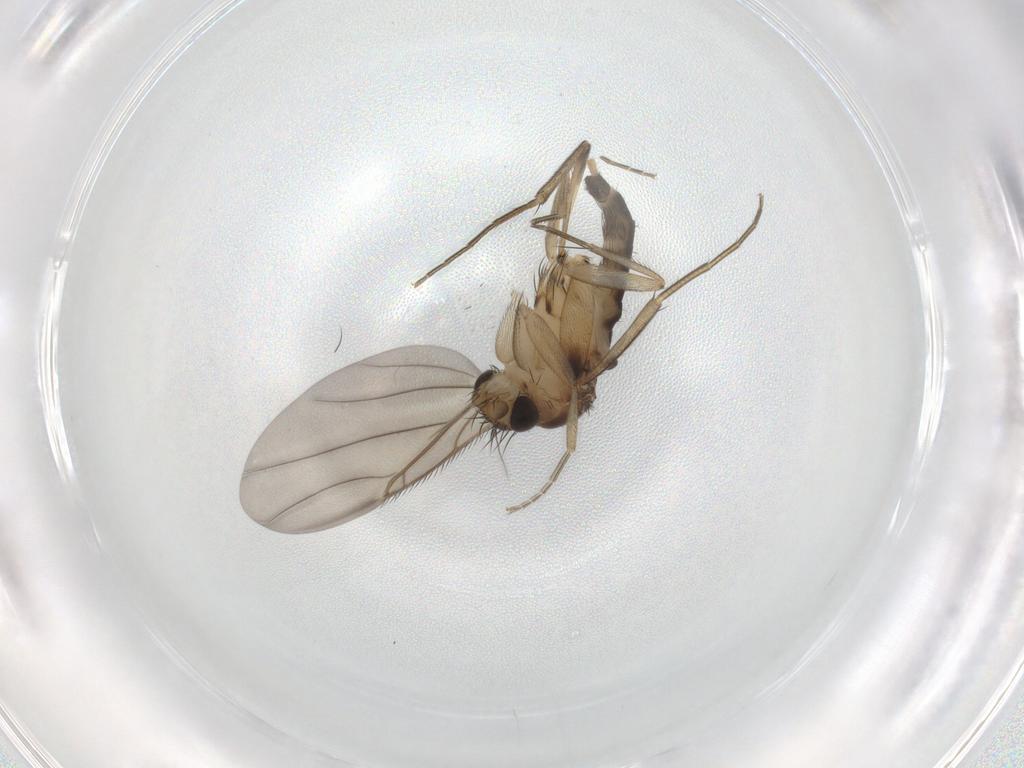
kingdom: Animalia
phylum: Arthropoda
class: Insecta
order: Diptera
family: Phoridae
